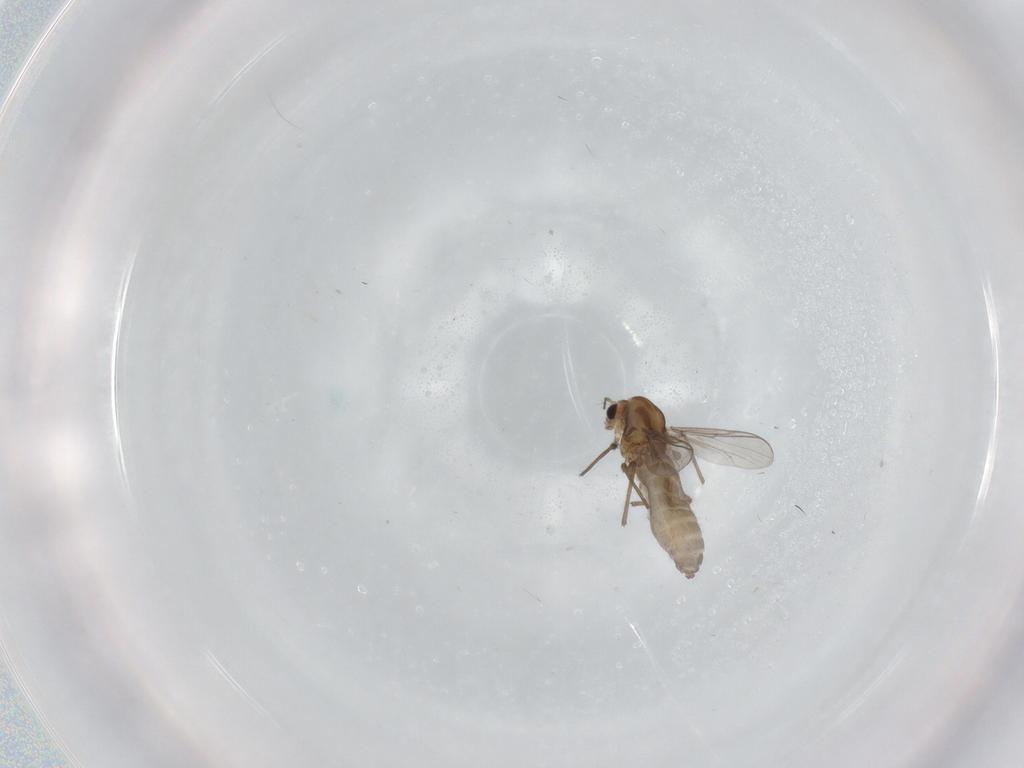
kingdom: Animalia
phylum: Arthropoda
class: Insecta
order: Diptera
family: Chironomidae
